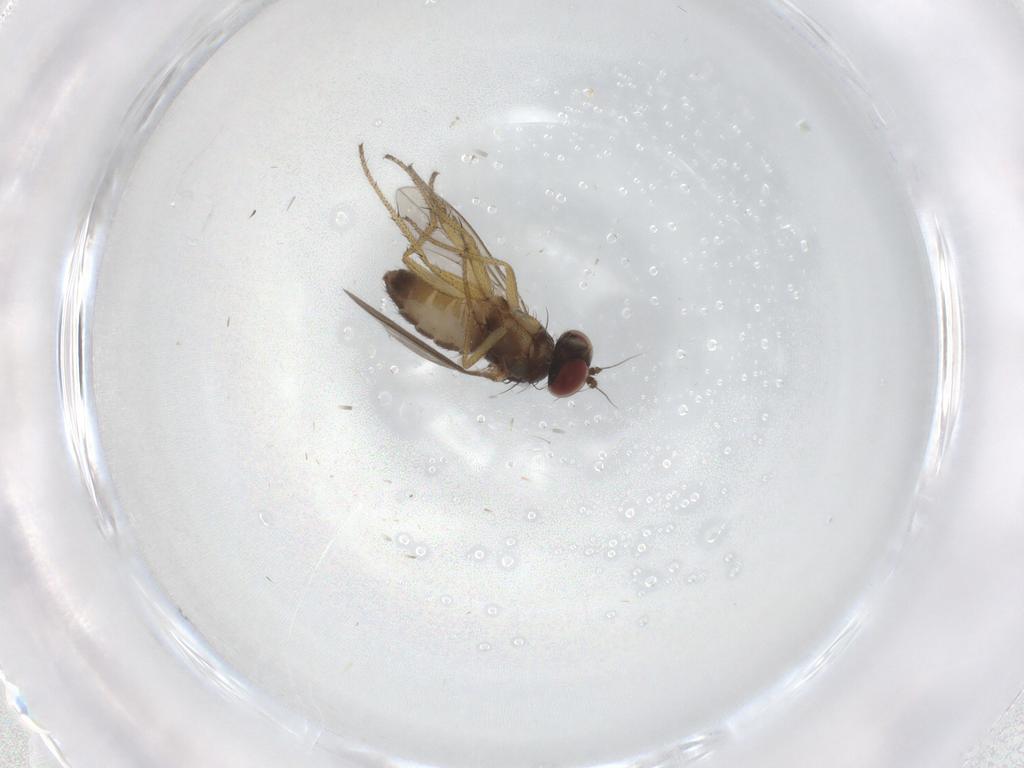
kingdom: Animalia
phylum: Arthropoda
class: Insecta
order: Diptera
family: Dolichopodidae
